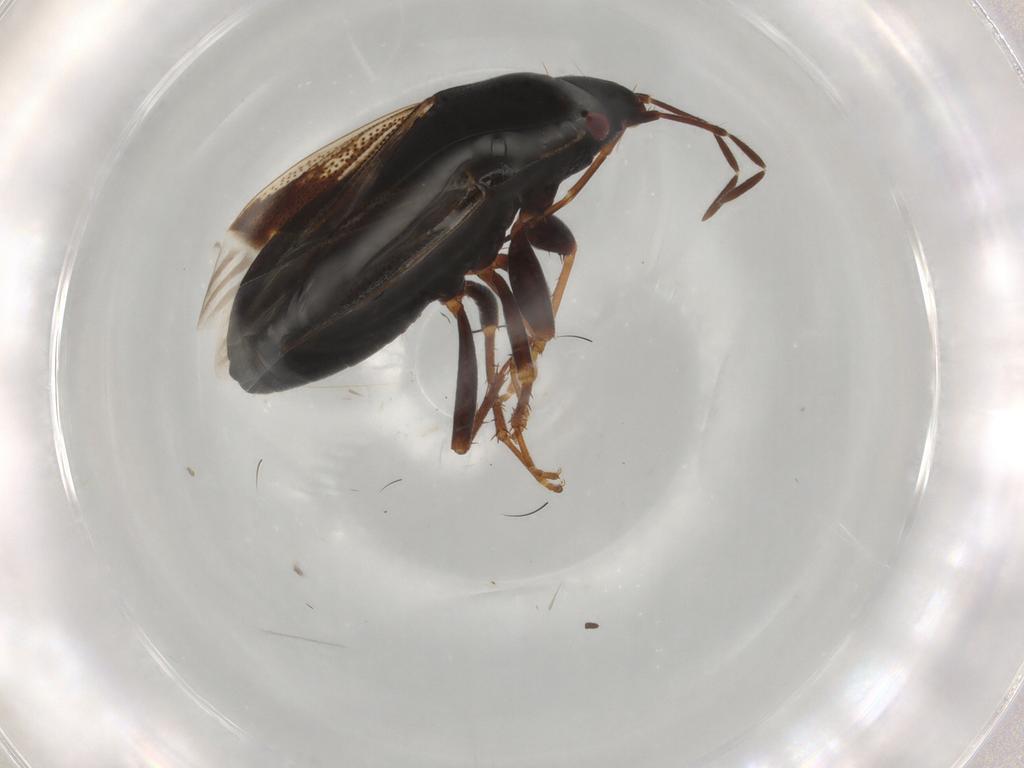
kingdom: Animalia
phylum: Arthropoda
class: Insecta
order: Hemiptera
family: Rhyparochromidae
